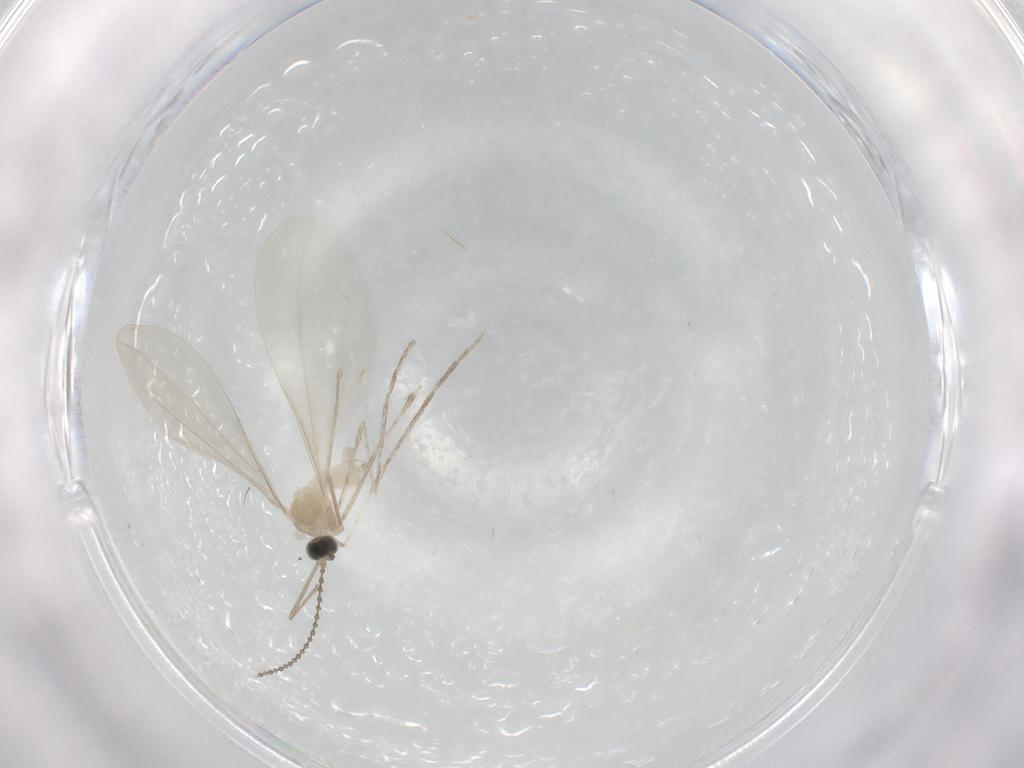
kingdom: Animalia
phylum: Arthropoda
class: Insecta
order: Diptera
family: Cecidomyiidae
